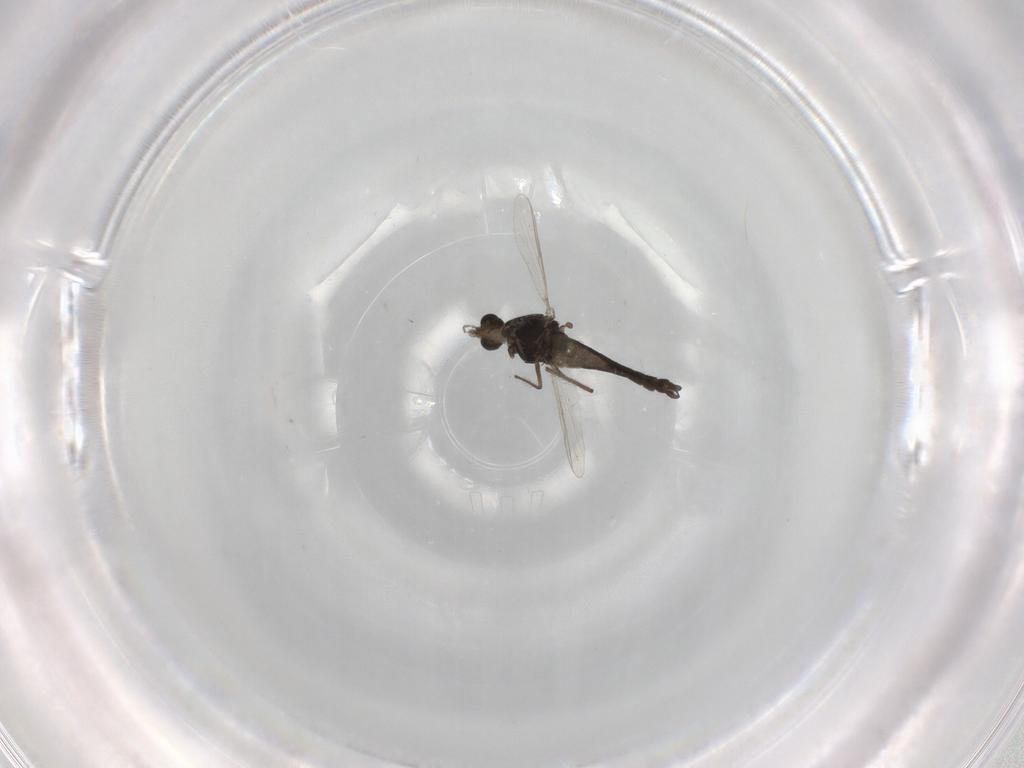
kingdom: Animalia
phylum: Arthropoda
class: Insecta
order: Diptera
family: Chironomidae
